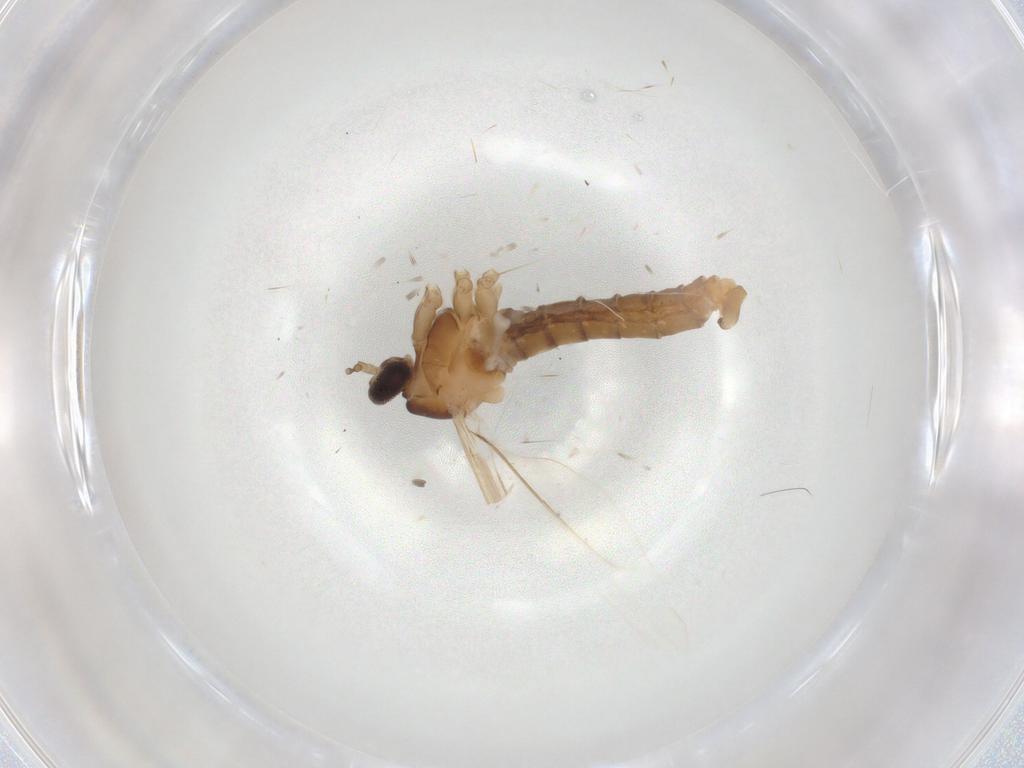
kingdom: Animalia
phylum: Arthropoda
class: Insecta
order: Diptera
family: Cecidomyiidae
